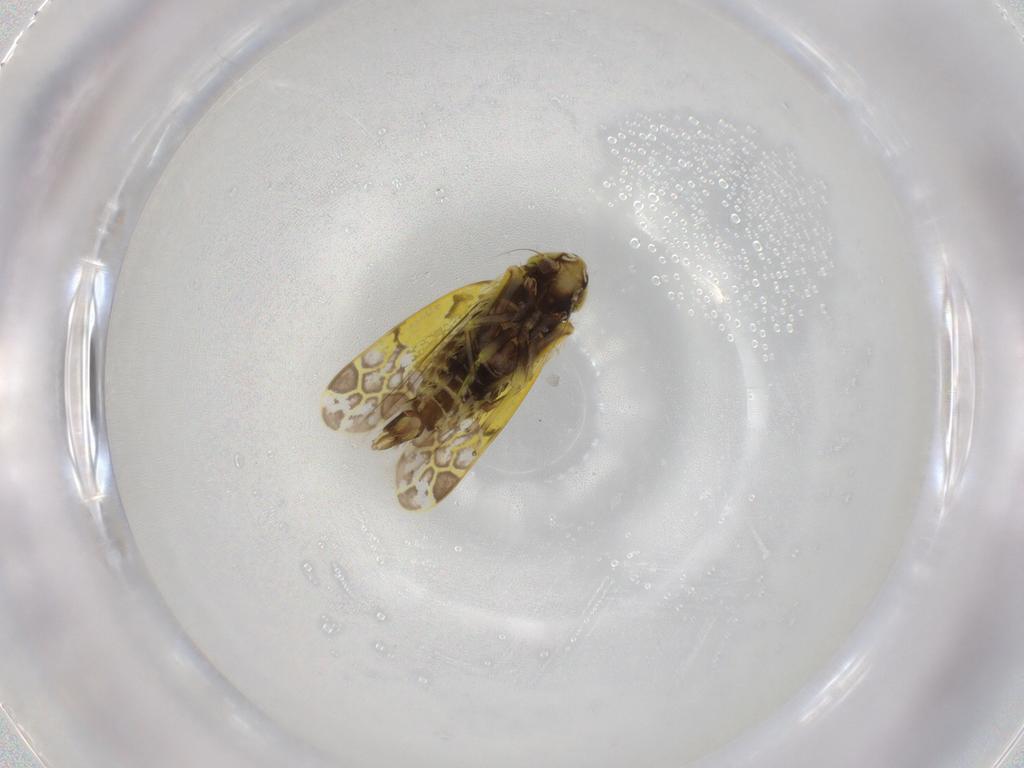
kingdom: Animalia
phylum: Arthropoda
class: Insecta
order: Hemiptera
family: Cicadellidae
